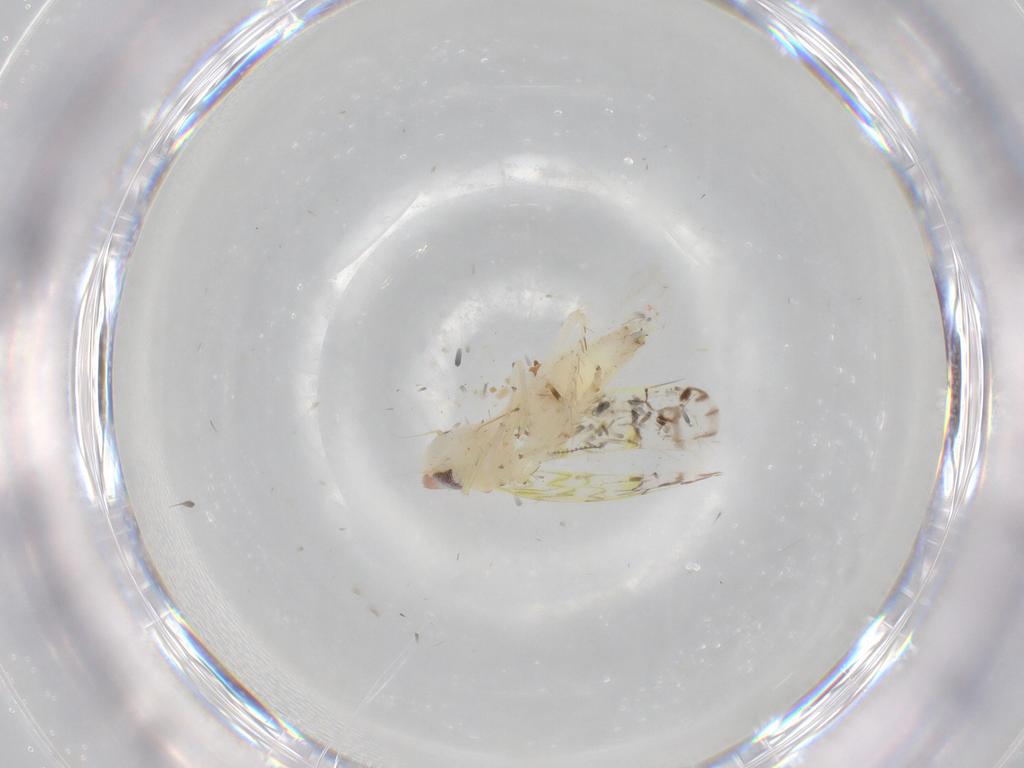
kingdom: Animalia
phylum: Arthropoda
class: Insecta
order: Hemiptera
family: Cicadellidae
